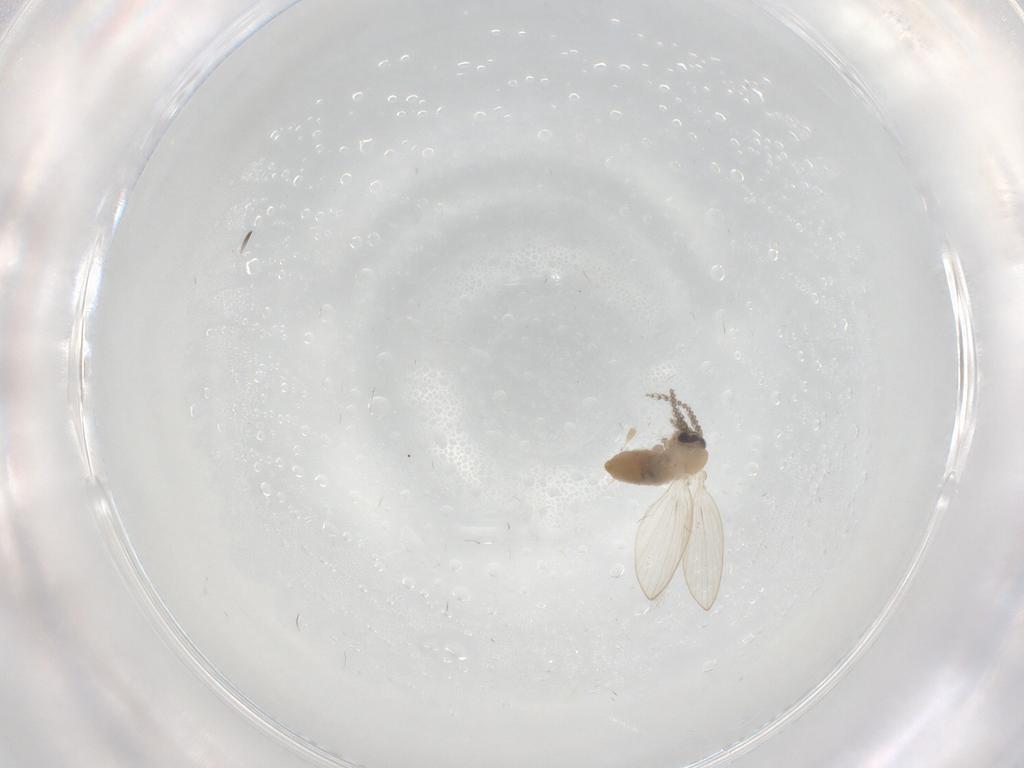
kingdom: Animalia
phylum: Arthropoda
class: Insecta
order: Diptera
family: Psychodidae
